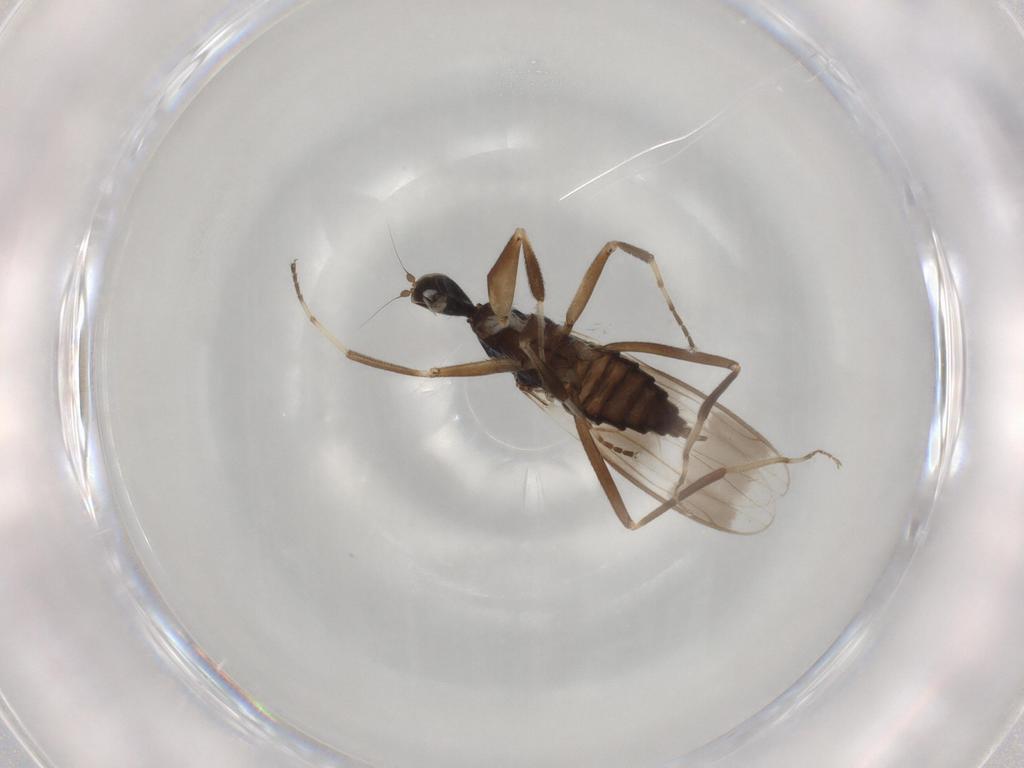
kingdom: Animalia
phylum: Arthropoda
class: Insecta
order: Diptera
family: Hybotidae
